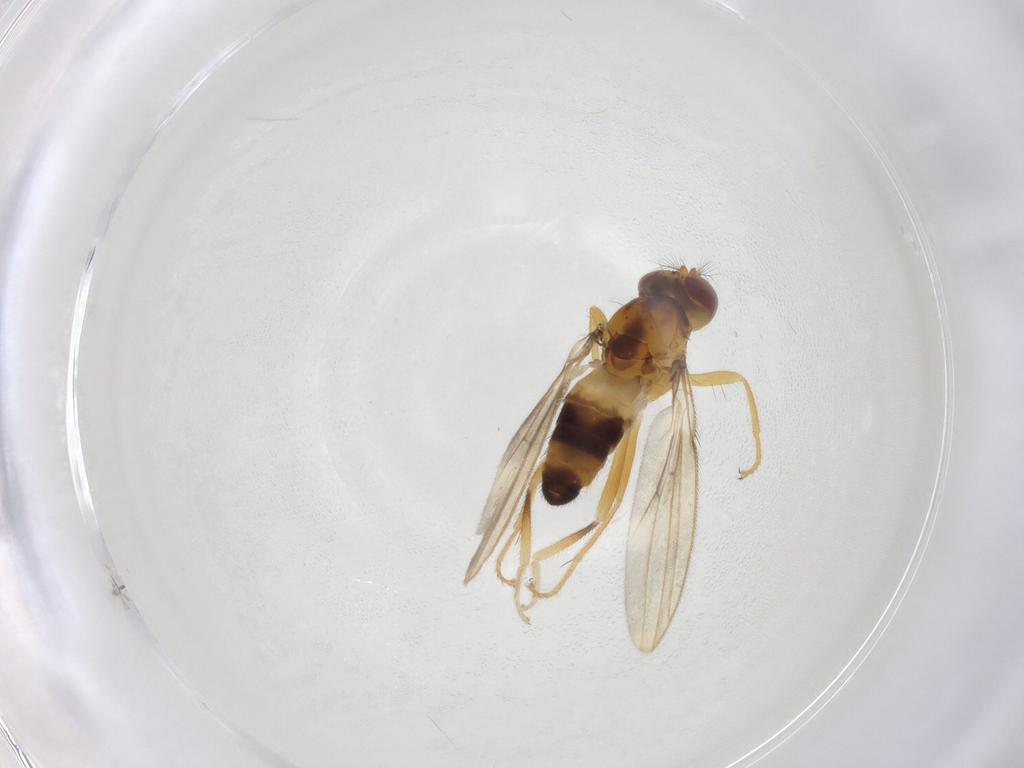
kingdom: Animalia
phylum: Arthropoda
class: Insecta
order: Diptera
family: Periscelididae
